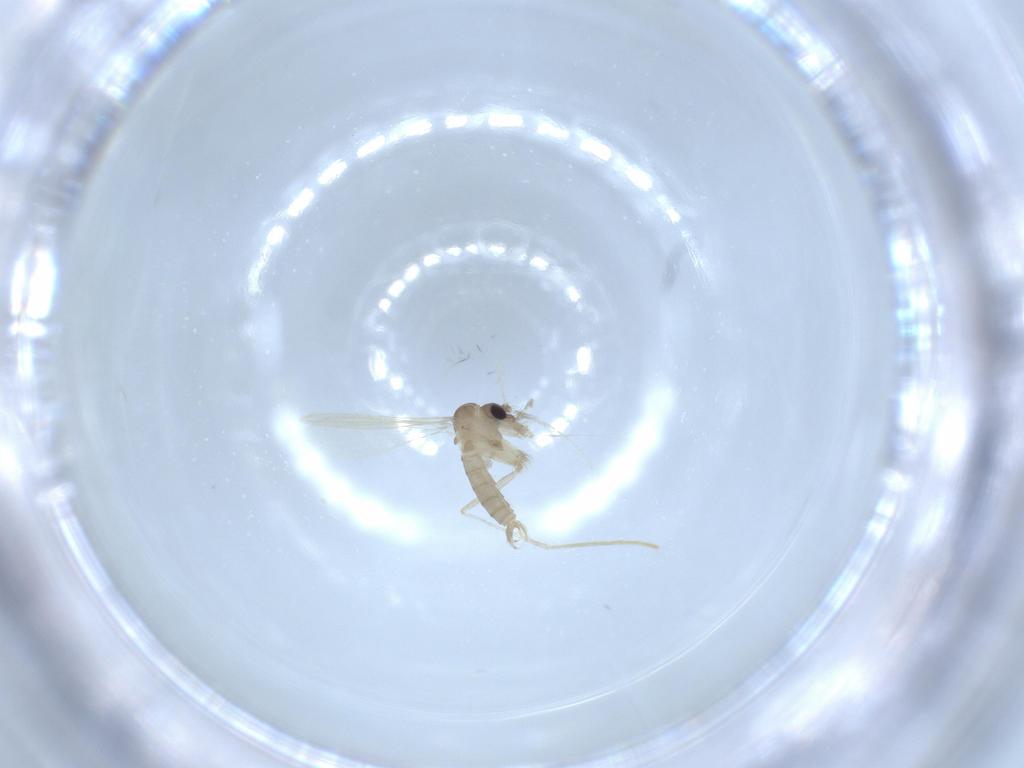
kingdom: Animalia
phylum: Arthropoda
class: Insecta
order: Diptera
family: Psychodidae
